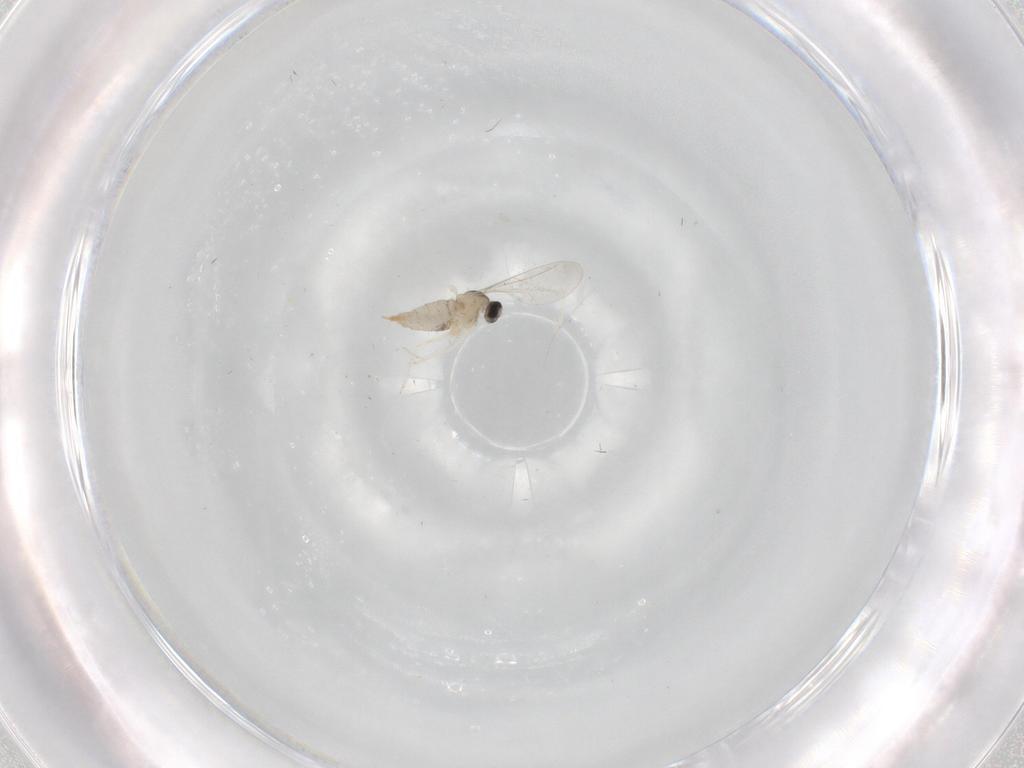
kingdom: Animalia
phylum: Arthropoda
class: Insecta
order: Diptera
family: Cecidomyiidae
